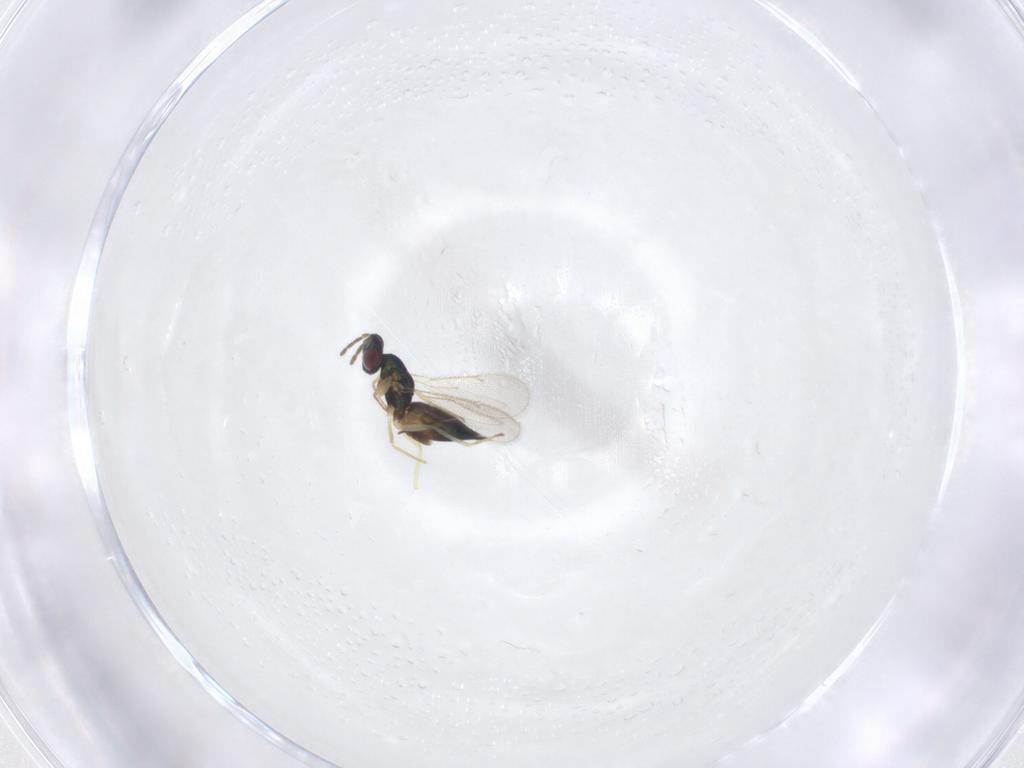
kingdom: Animalia
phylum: Arthropoda
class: Insecta
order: Hymenoptera
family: Eulophidae
